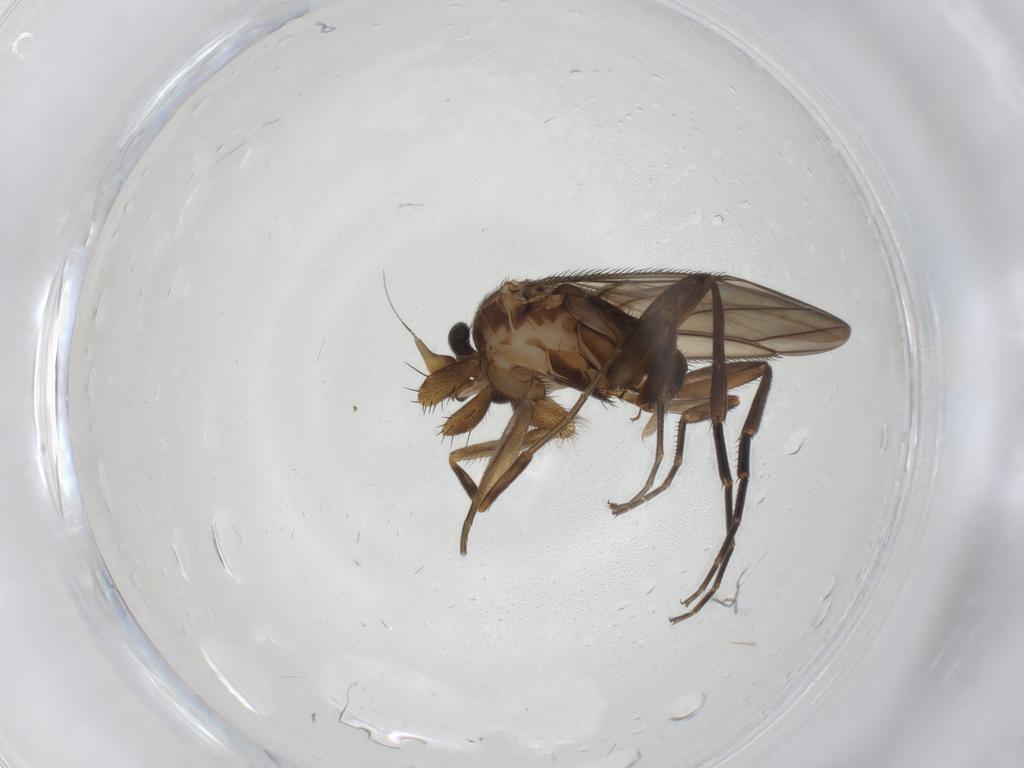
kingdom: Animalia
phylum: Arthropoda
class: Insecta
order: Diptera
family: Phoridae
